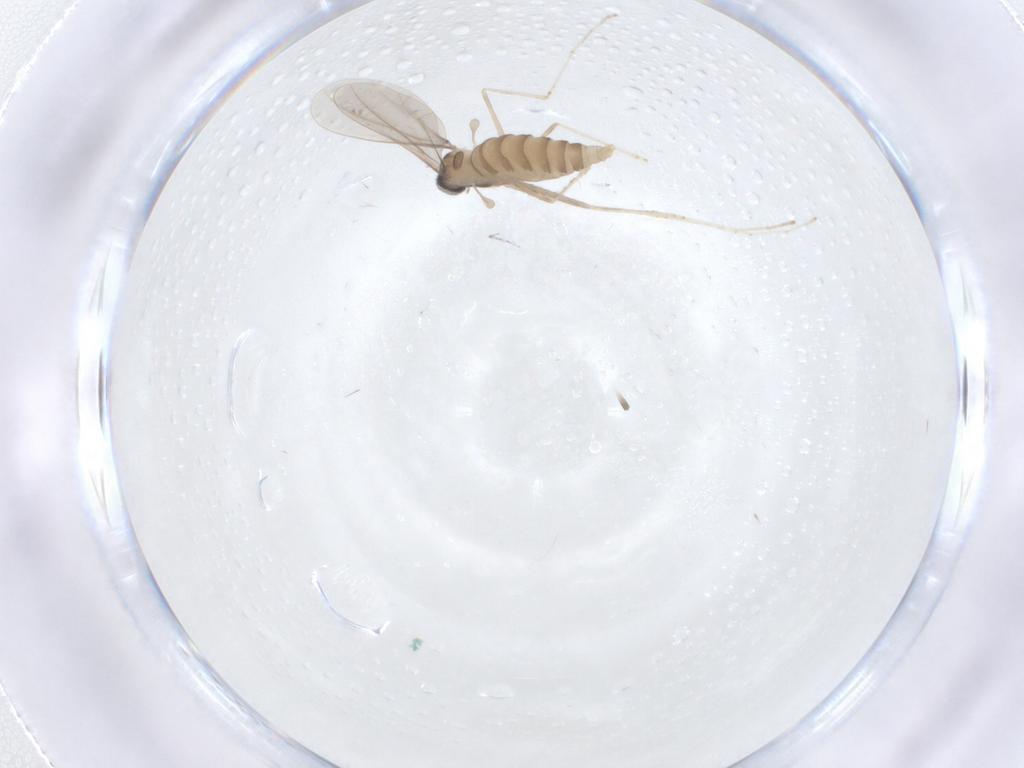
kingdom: Animalia
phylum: Arthropoda
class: Insecta
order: Diptera
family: Cecidomyiidae
